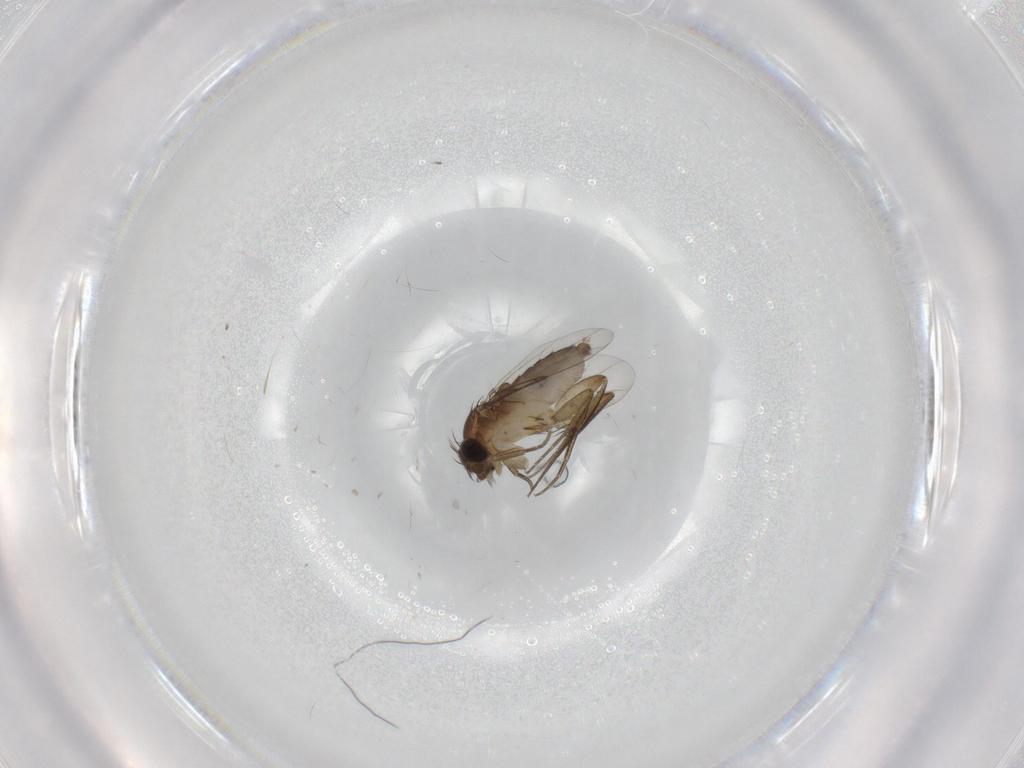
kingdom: Animalia
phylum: Arthropoda
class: Insecta
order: Diptera
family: Phoridae
